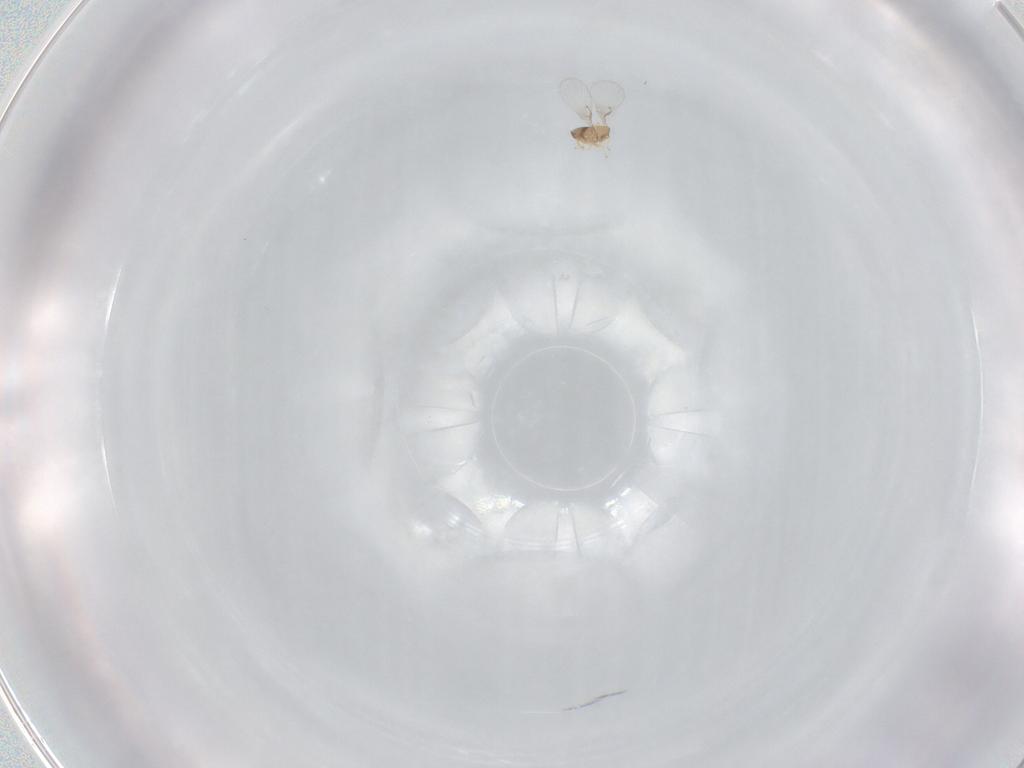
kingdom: Animalia
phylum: Arthropoda
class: Insecta
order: Hymenoptera
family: Trichogrammatidae
